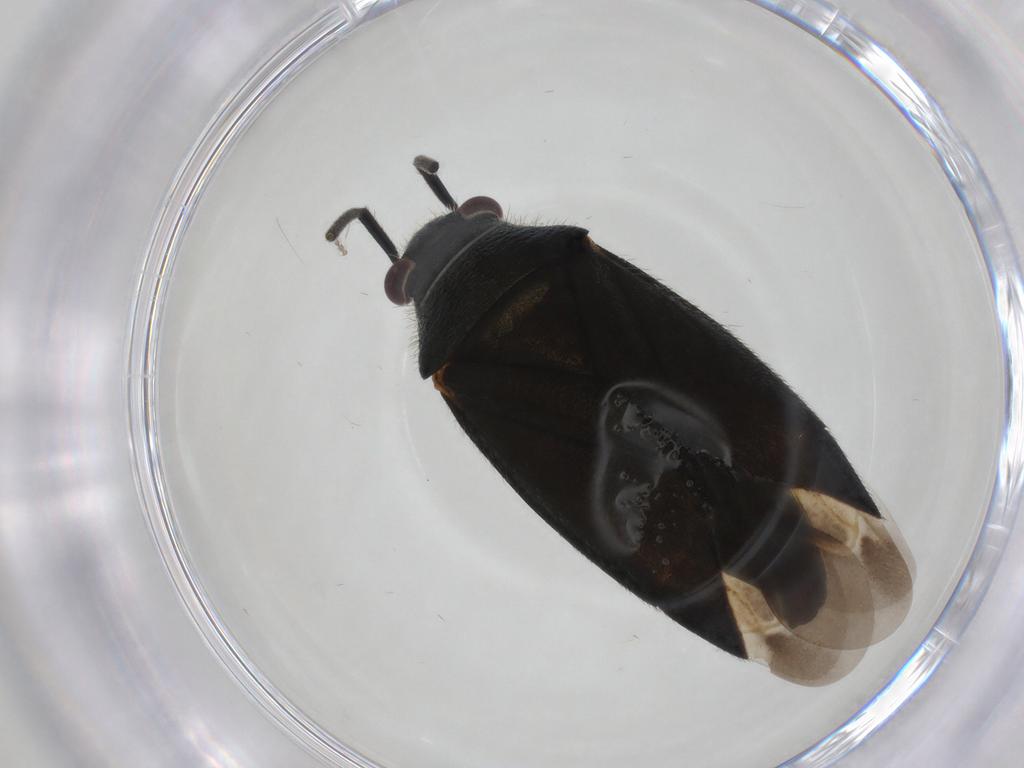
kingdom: Animalia
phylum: Arthropoda
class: Insecta
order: Hemiptera
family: Miridae
